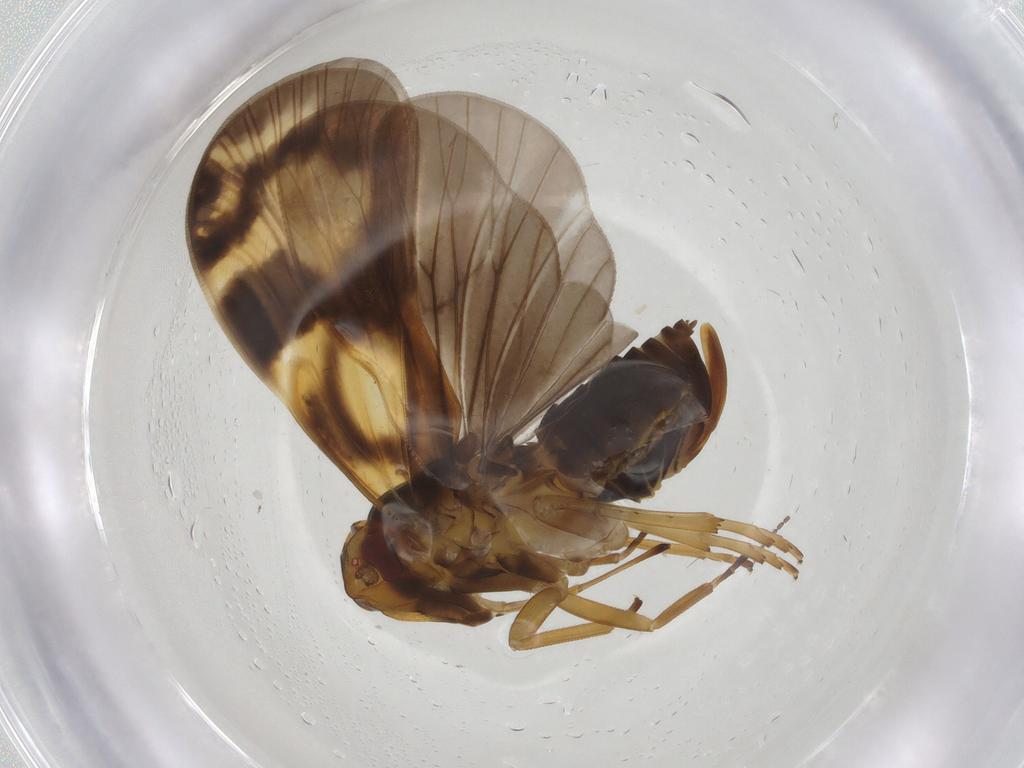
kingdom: Animalia
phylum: Arthropoda
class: Insecta
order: Hemiptera
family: Cixiidae
